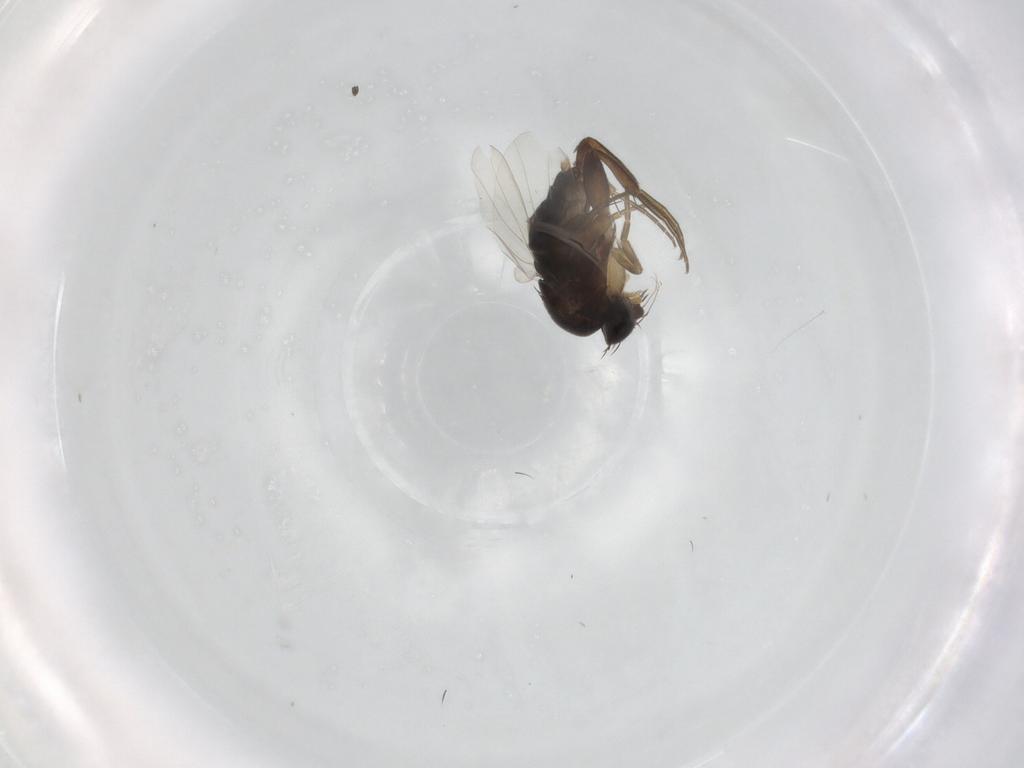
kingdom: Animalia
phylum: Arthropoda
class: Insecta
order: Diptera
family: Phoridae
